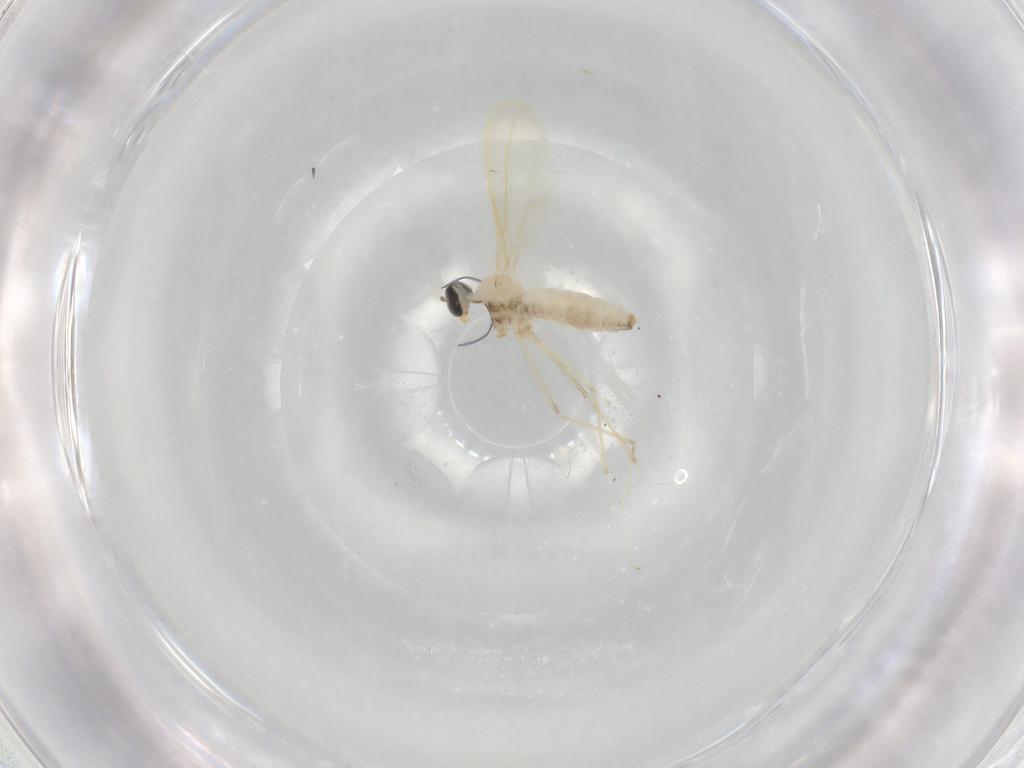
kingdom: Animalia
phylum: Arthropoda
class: Insecta
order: Diptera
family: Cecidomyiidae
